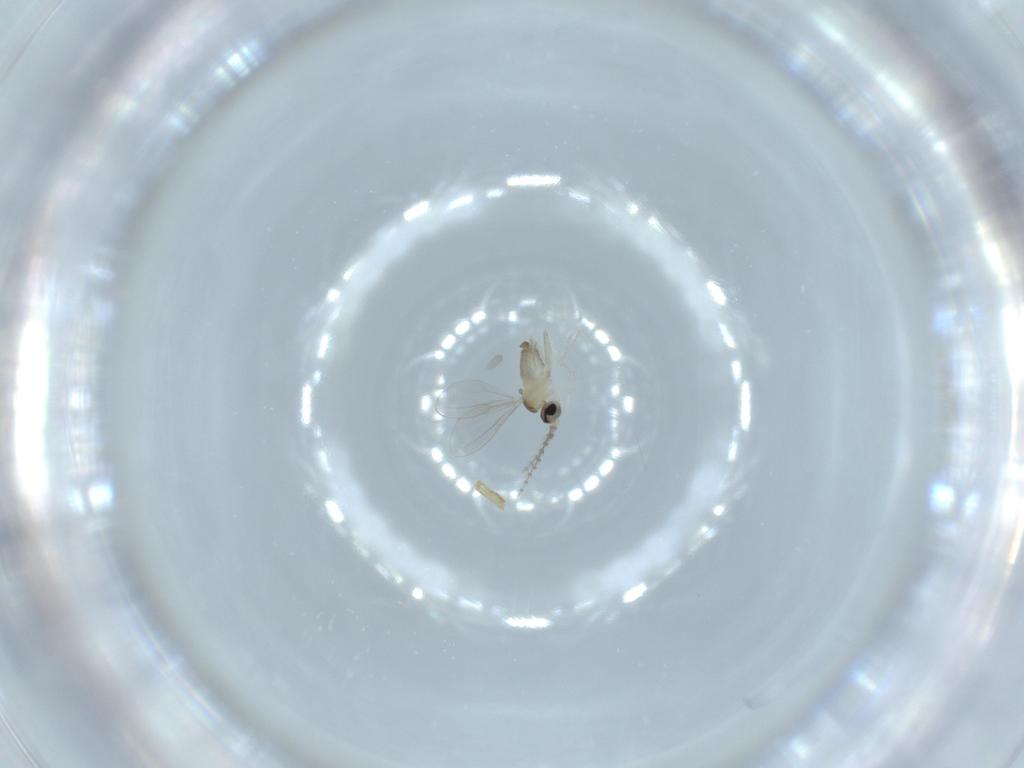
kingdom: Animalia
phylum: Arthropoda
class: Insecta
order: Diptera
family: Cecidomyiidae
